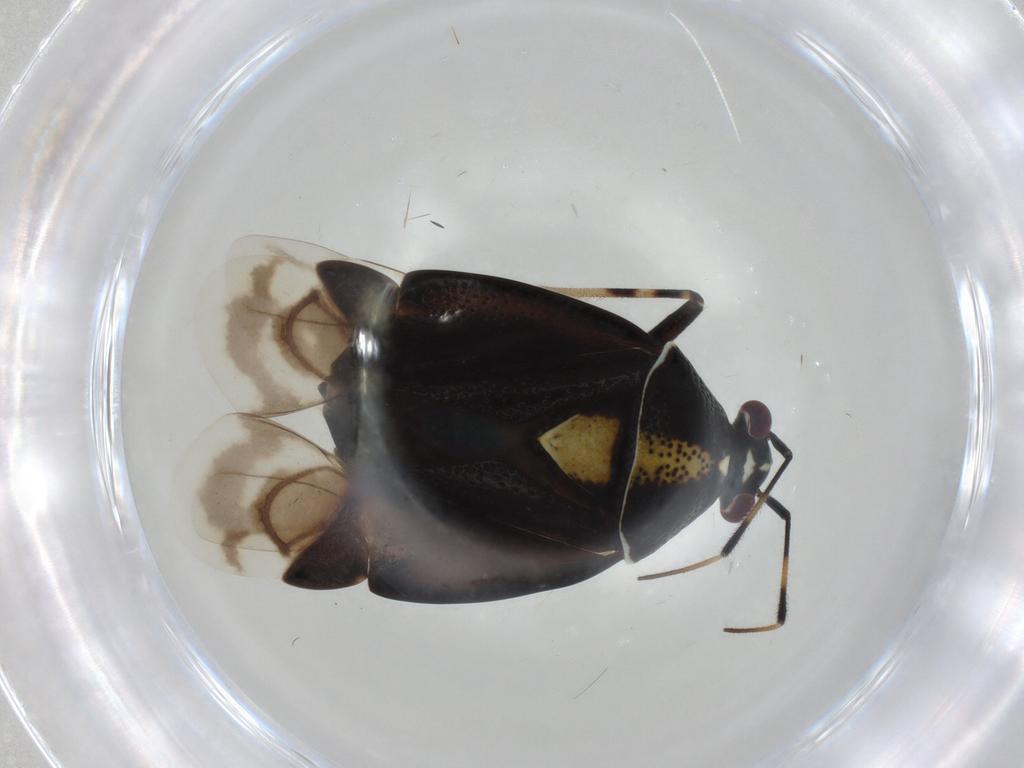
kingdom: Animalia
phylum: Arthropoda
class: Insecta
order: Hemiptera
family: Miridae
